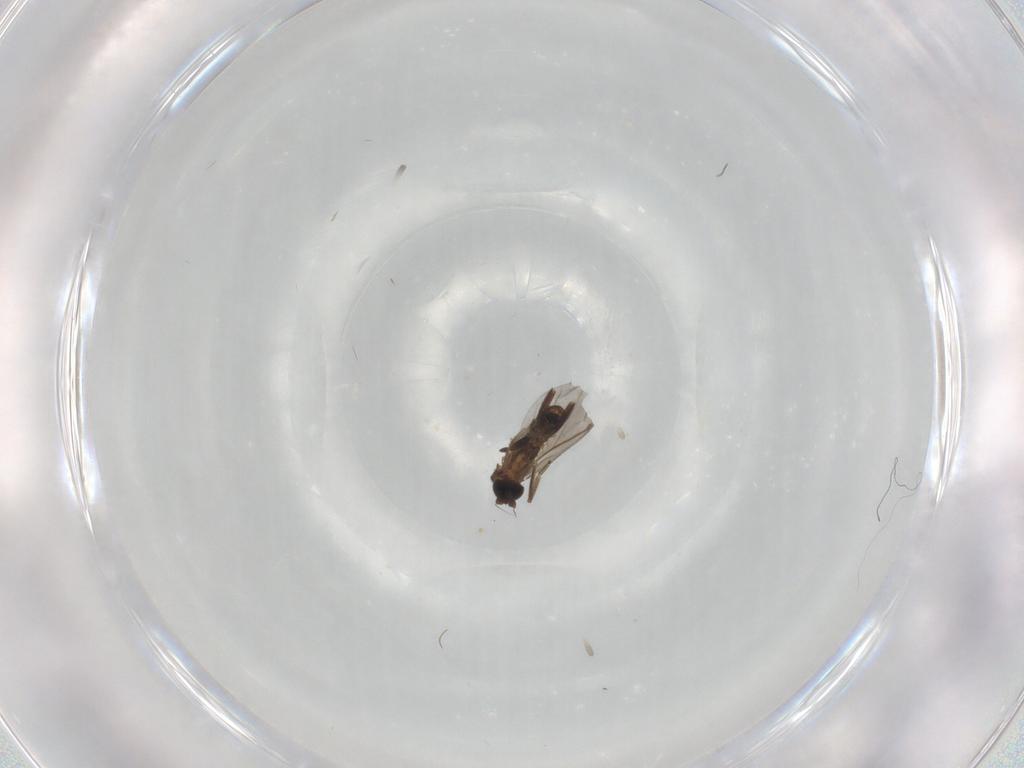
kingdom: Animalia
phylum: Arthropoda
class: Insecta
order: Diptera
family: Phoridae
